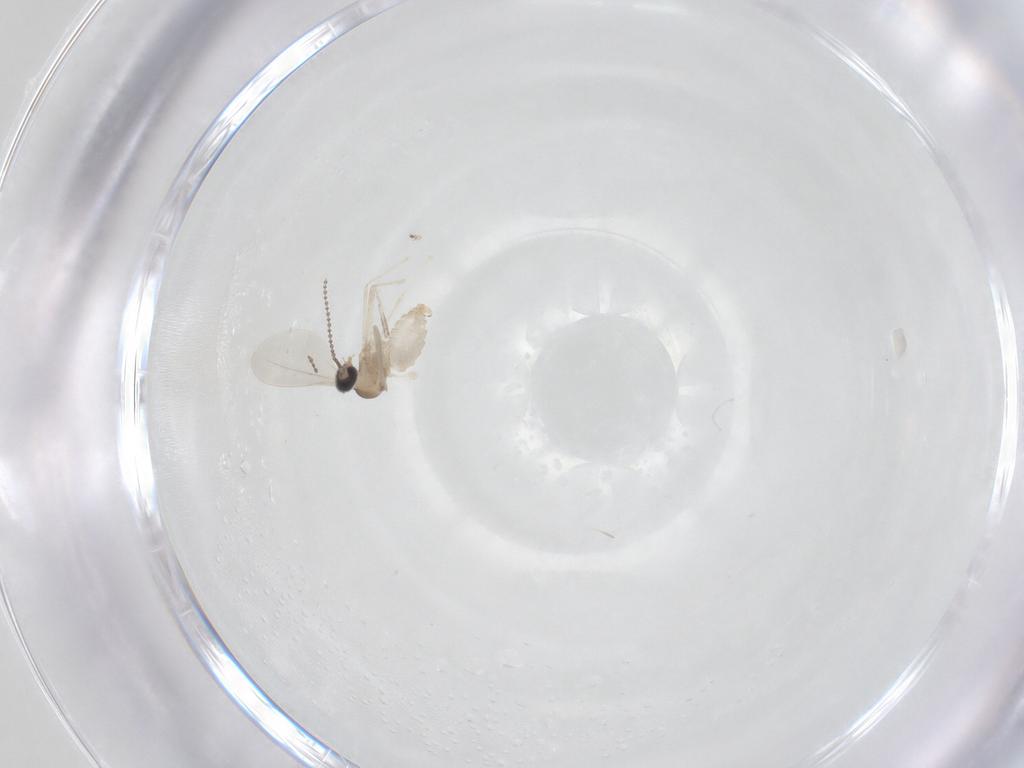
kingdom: Animalia
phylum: Arthropoda
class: Insecta
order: Diptera
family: Cecidomyiidae
